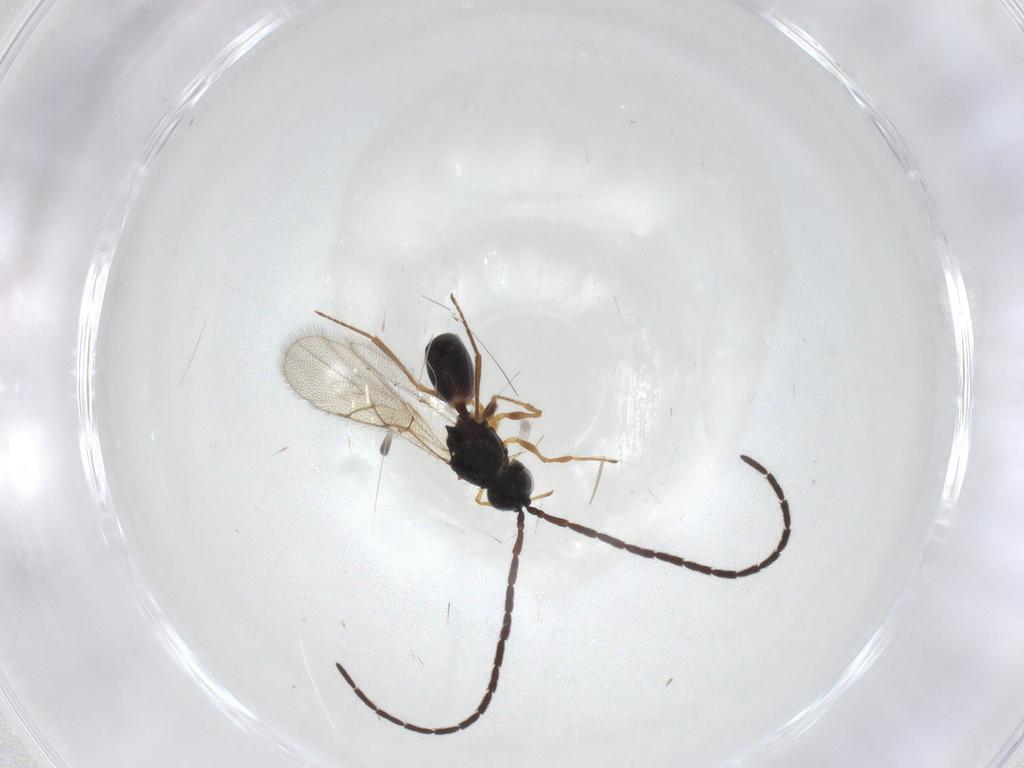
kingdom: Animalia
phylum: Arthropoda
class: Insecta
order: Hymenoptera
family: Figitidae
